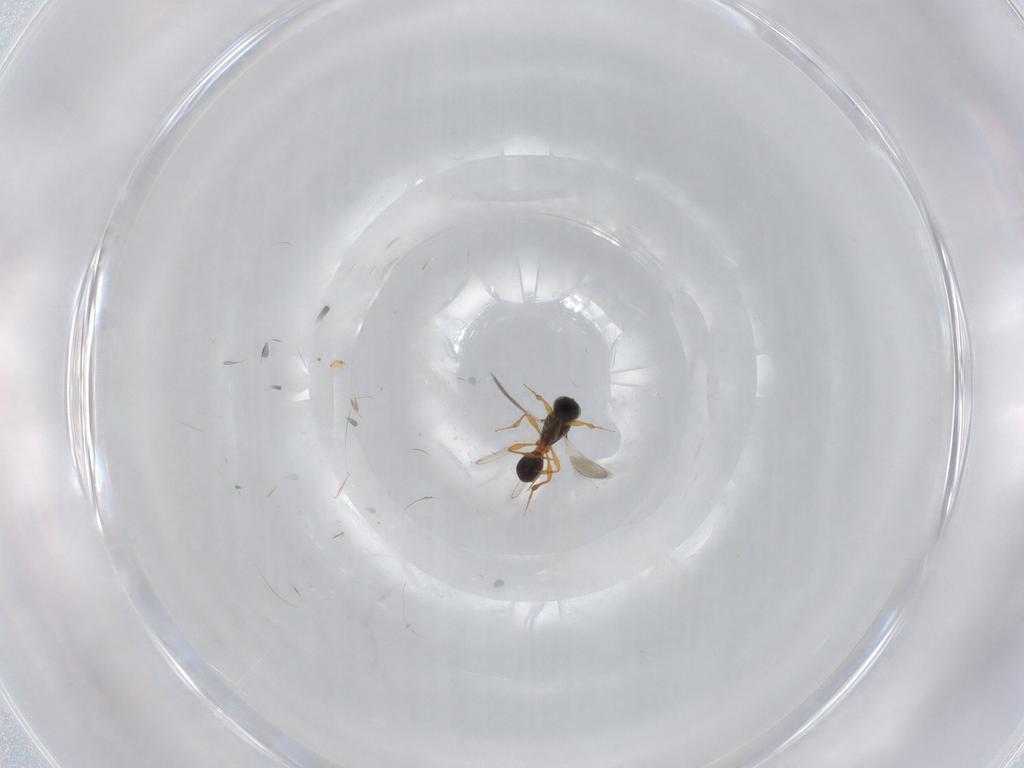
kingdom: Animalia
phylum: Arthropoda
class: Insecta
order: Hymenoptera
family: Platygastridae
